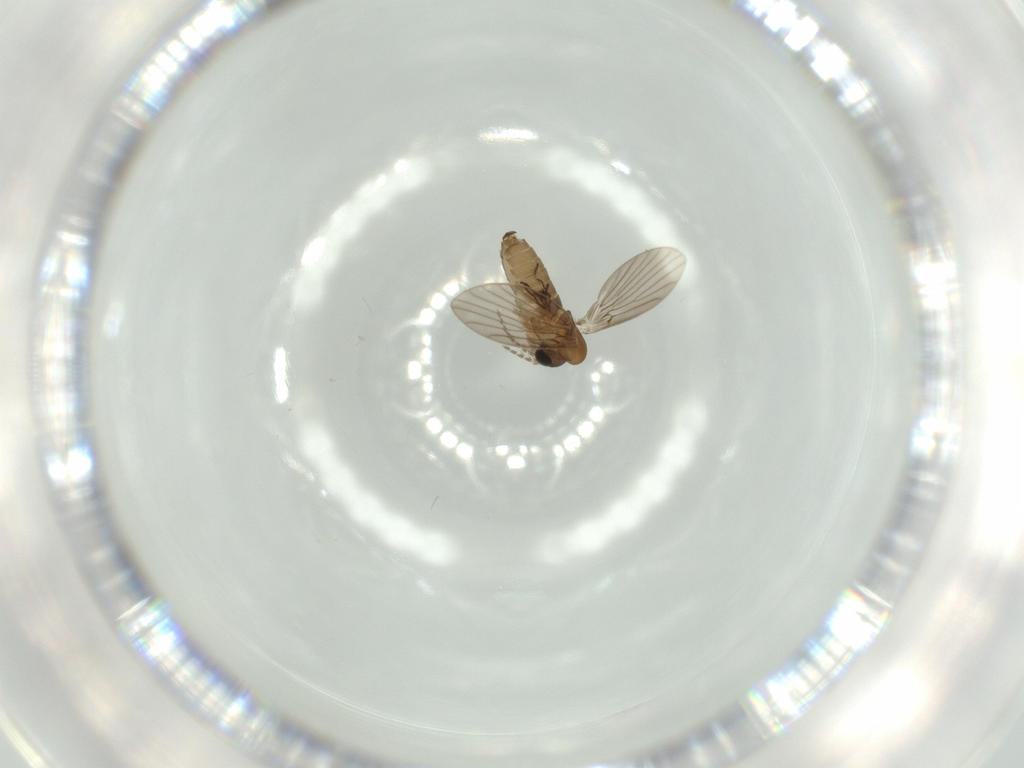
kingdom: Animalia
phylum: Arthropoda
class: Insecta
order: Diptera
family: Psychodidae
